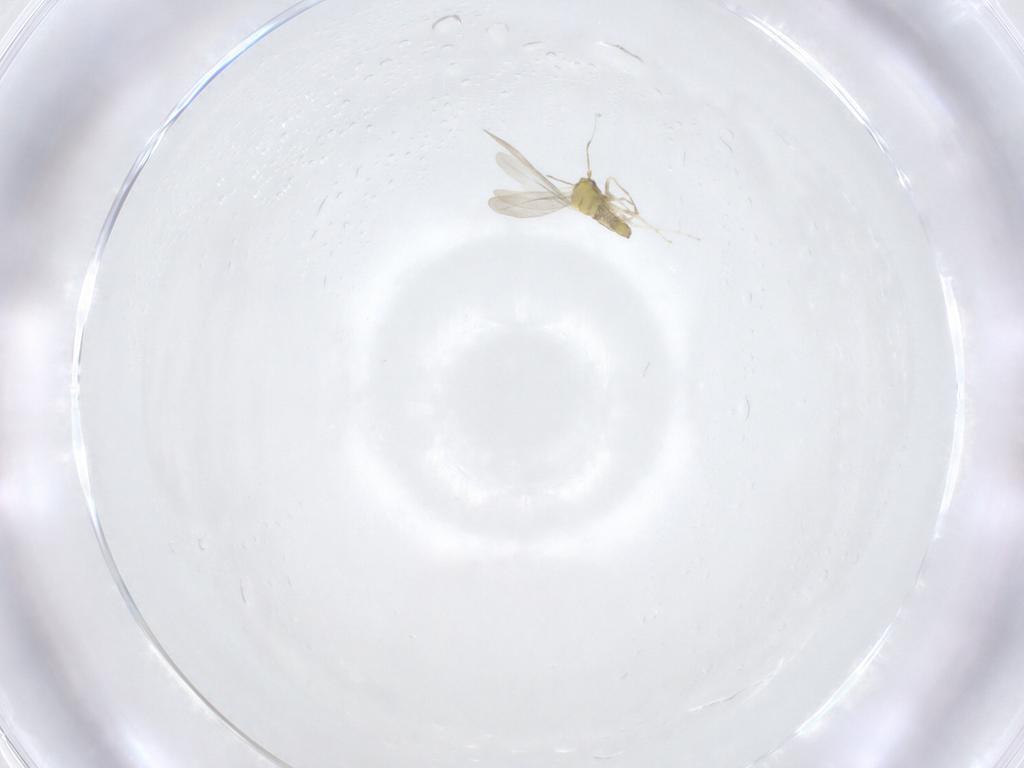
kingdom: Animalia
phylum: Arthropoda
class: Insecta
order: Hemiptera
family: Aleyrodidae
